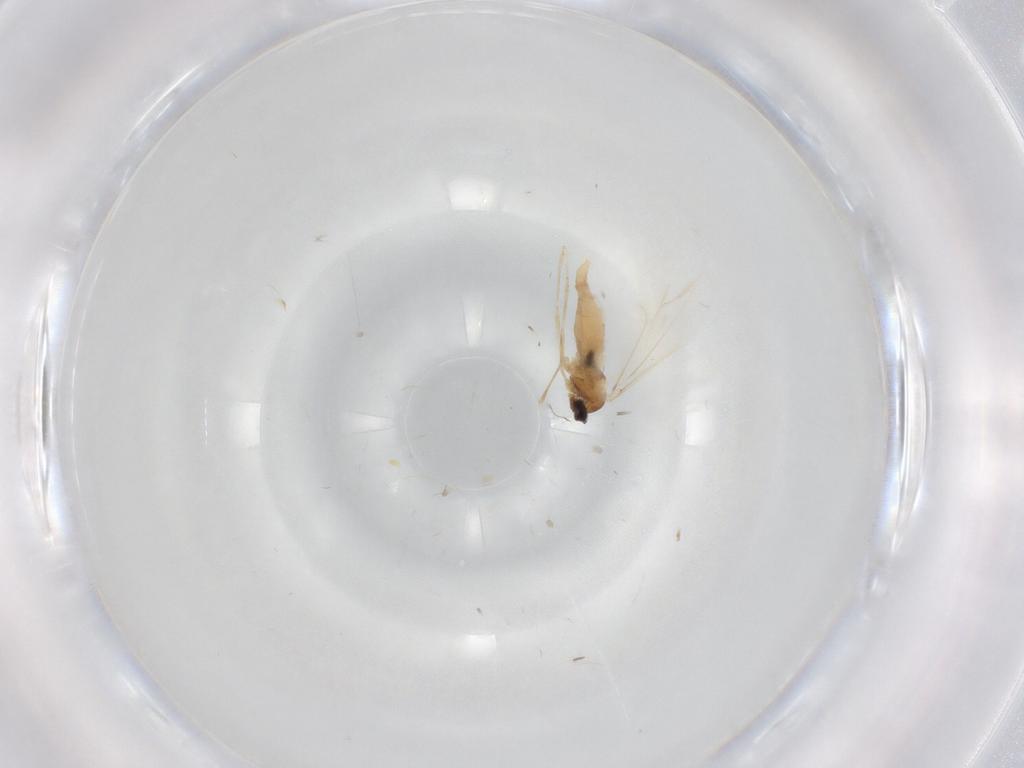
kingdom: Animalia
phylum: Arthropoda
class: Insecta
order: Diptera
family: Cecidomyiidae
